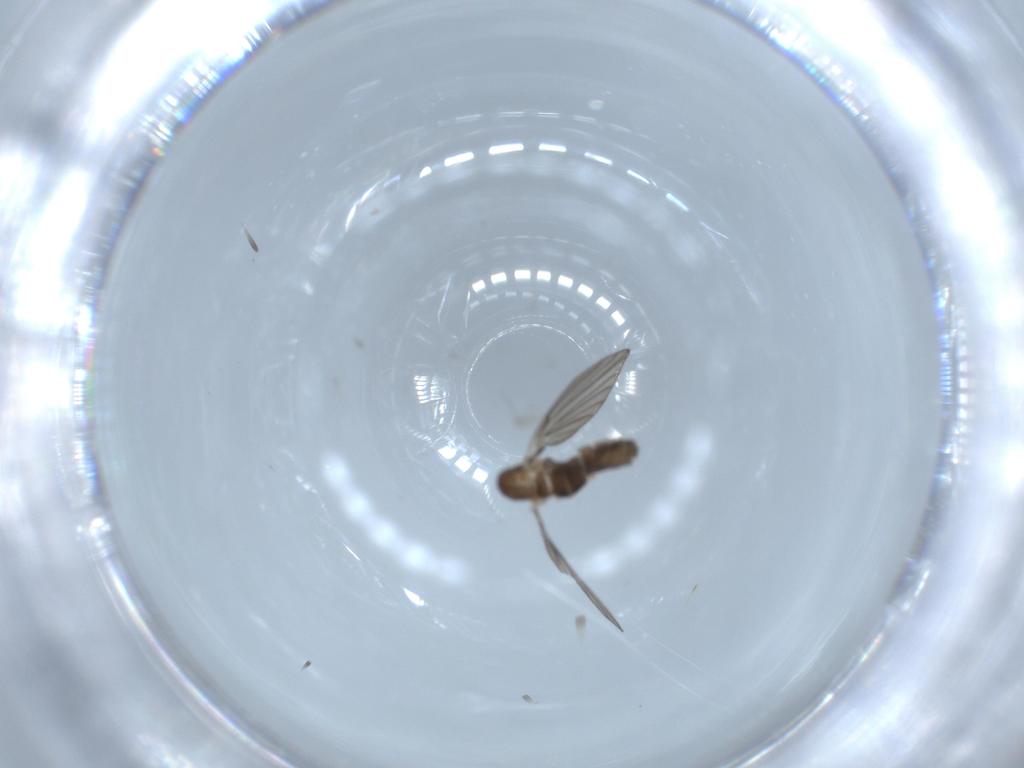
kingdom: Animalia
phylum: Arthropoda
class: Insecta
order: Diptera
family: Psychodidae
